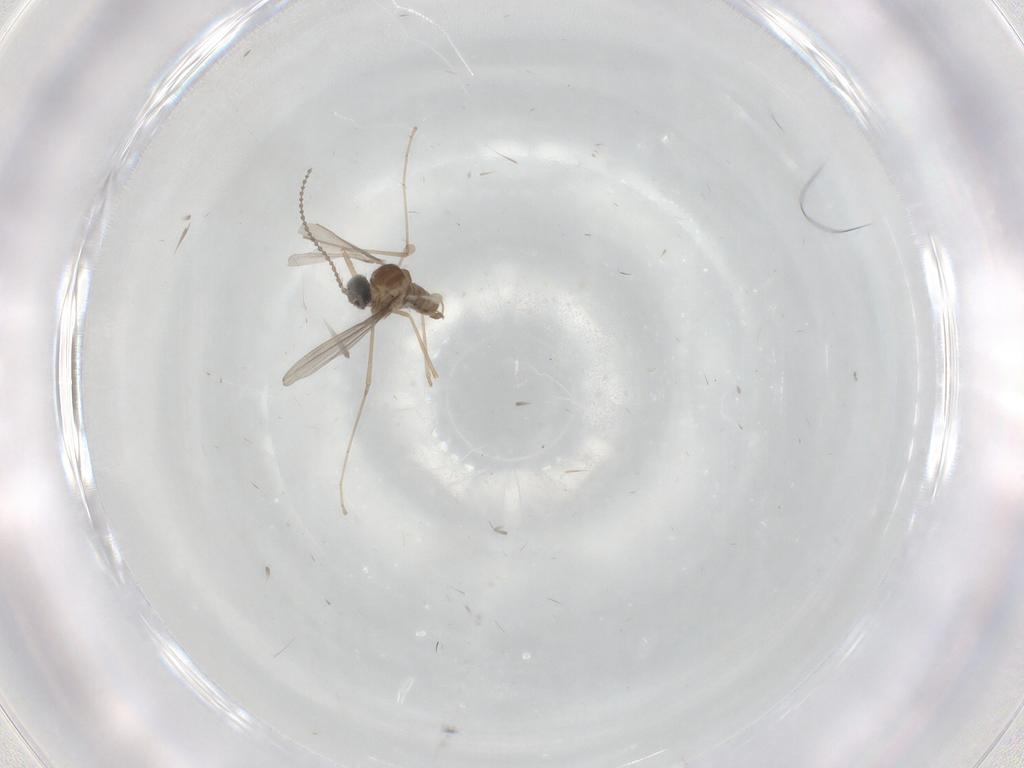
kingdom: Animalia
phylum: Arthropoda
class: Insecta
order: Diptera
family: Cecidomyiidae
